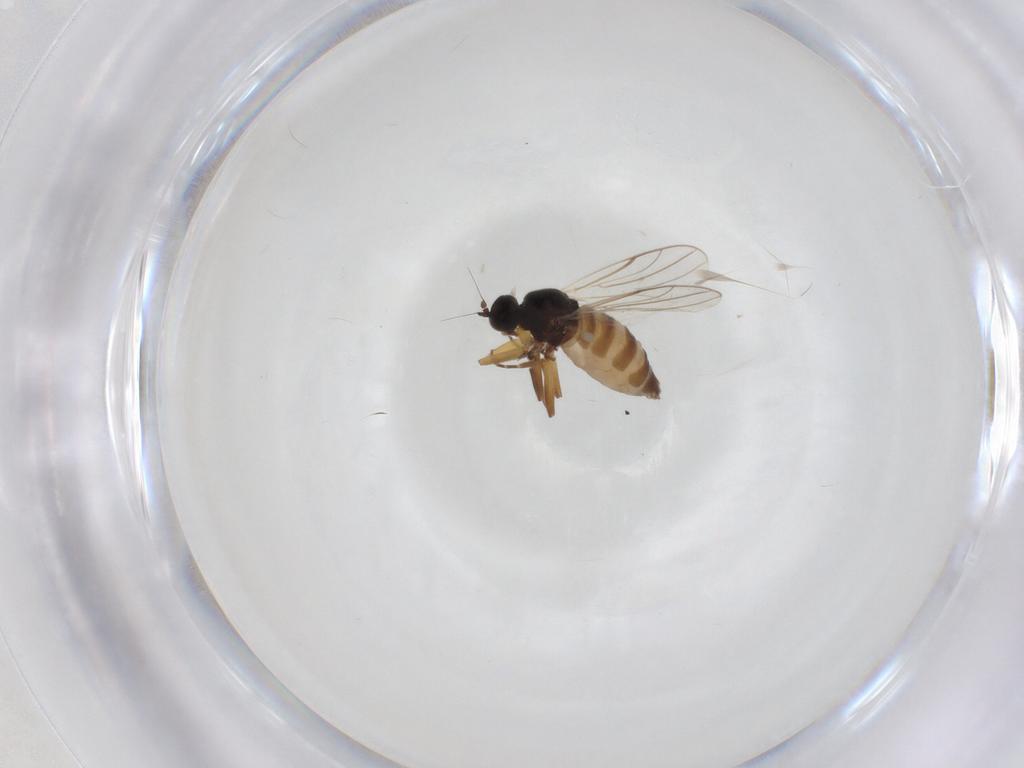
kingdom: Animalia
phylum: Arthropoda
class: Insecta
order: Diptera
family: Hybotidae
